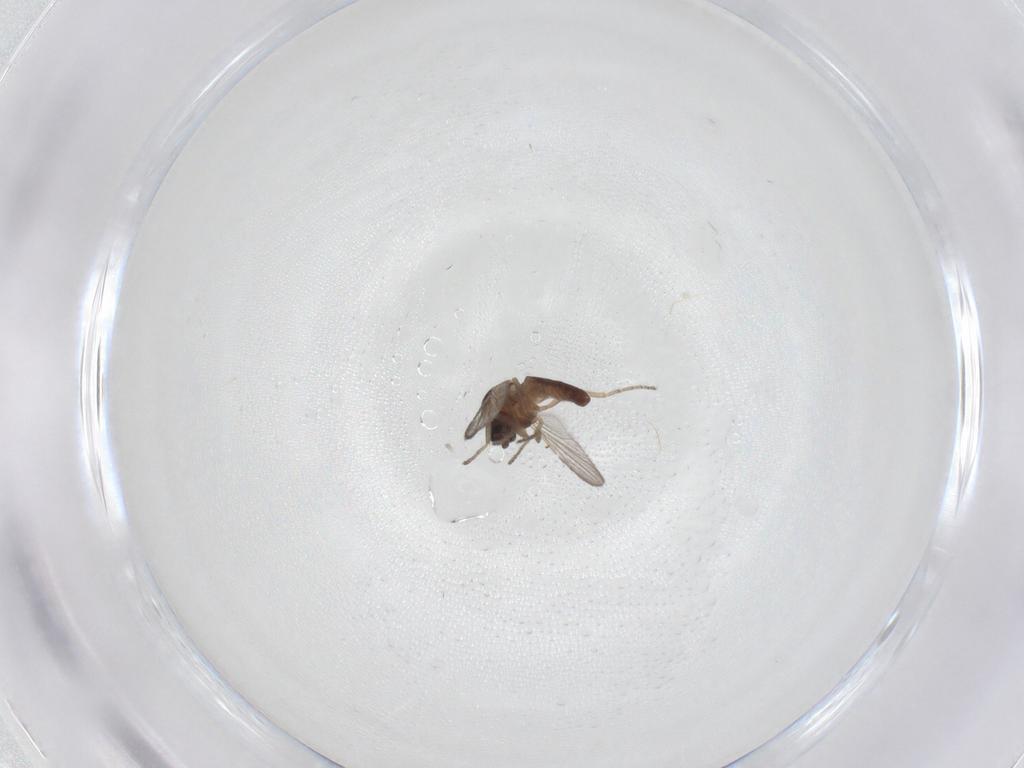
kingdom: Animalia
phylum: Arthropoda
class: Insecta
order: Diptera
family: Ceratopogonidae
